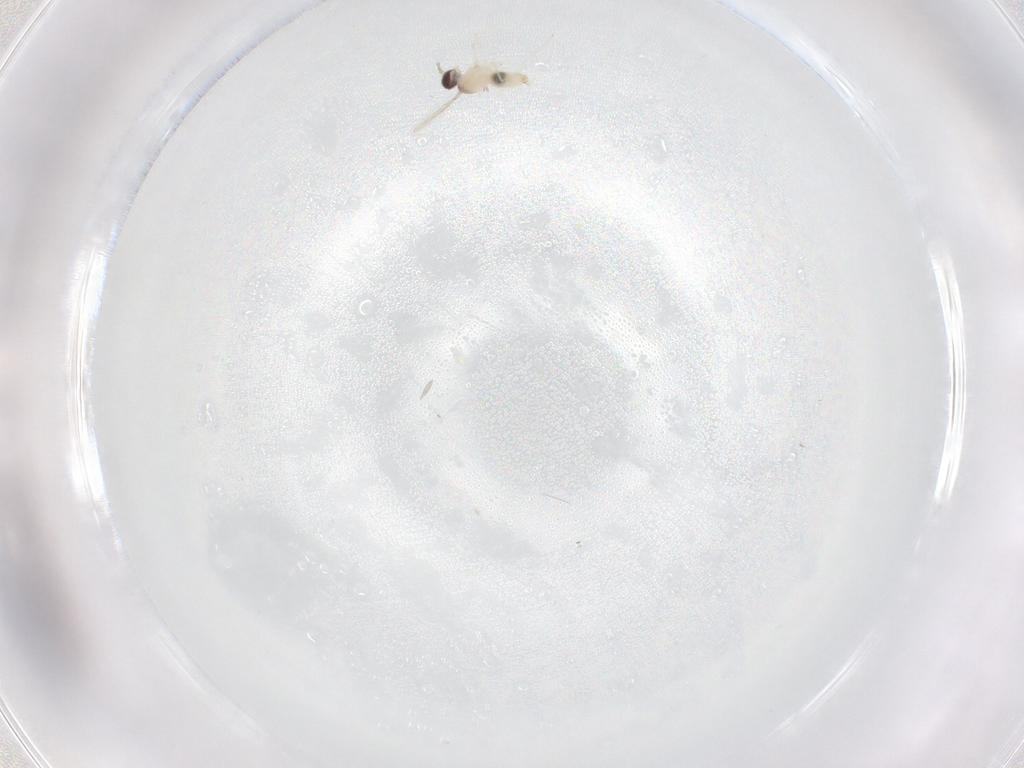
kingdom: Animalia
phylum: Arthropoda
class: Insecta
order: Diptera
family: Cecidomyiidae
